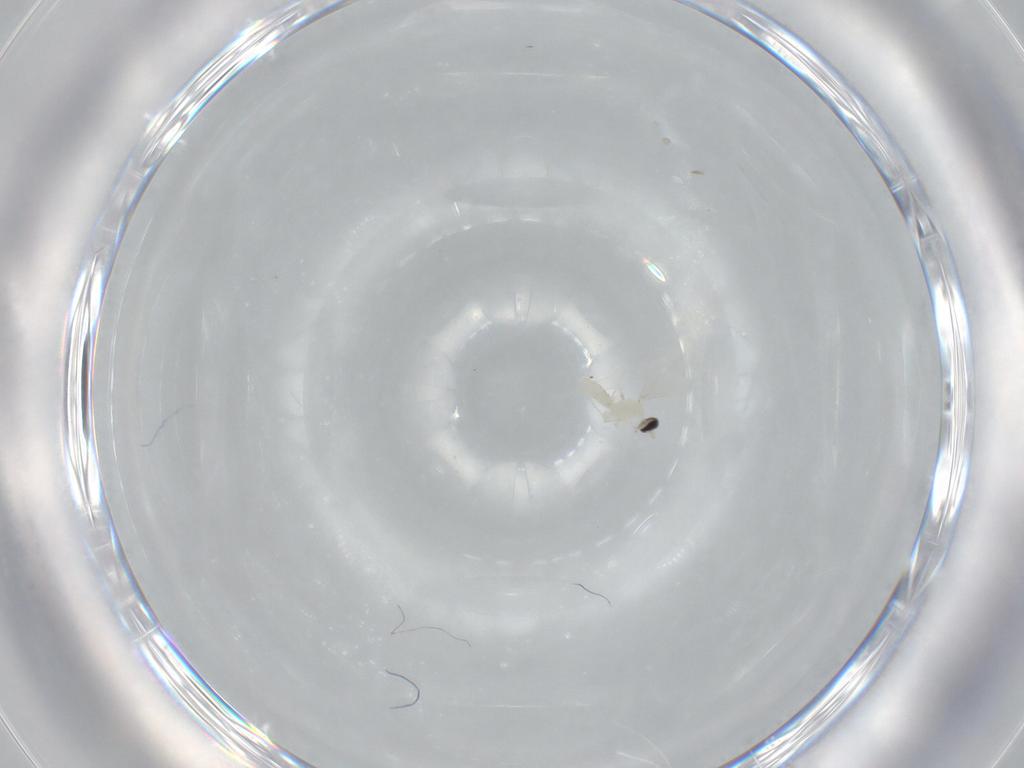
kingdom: Animalia
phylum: Arthropoda
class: Insecta
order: Diptera
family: Cecidomyiidae
